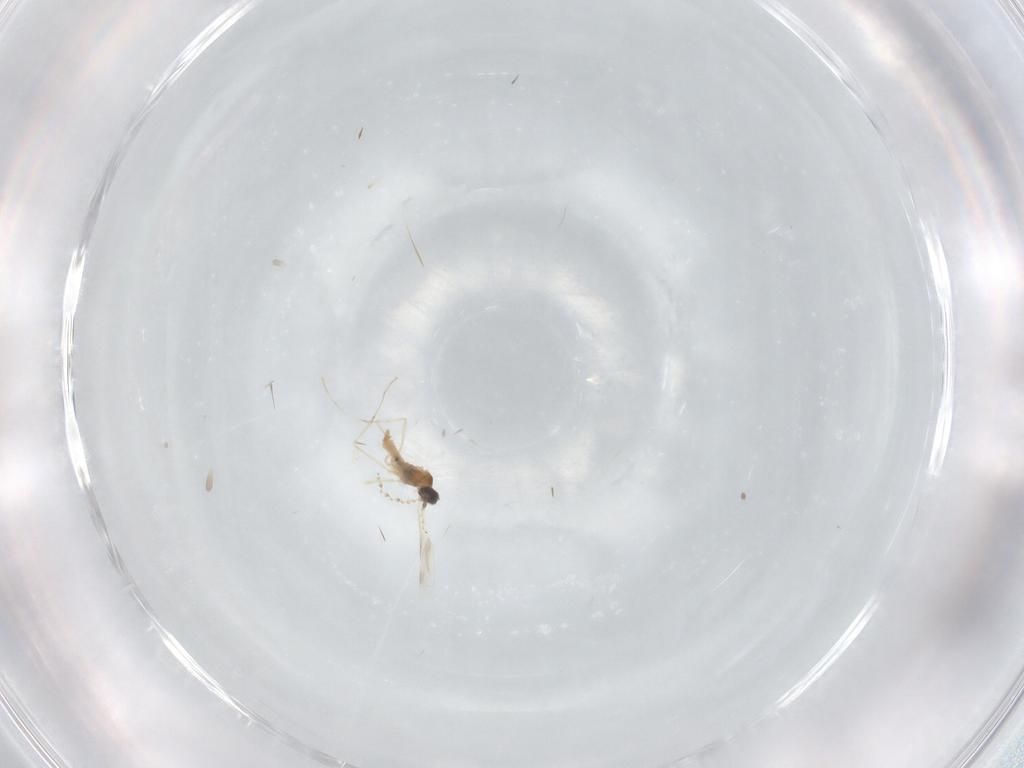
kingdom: Animalia
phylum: Arthropoda
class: Insecta
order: Diptera
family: Cecidomyiidae
